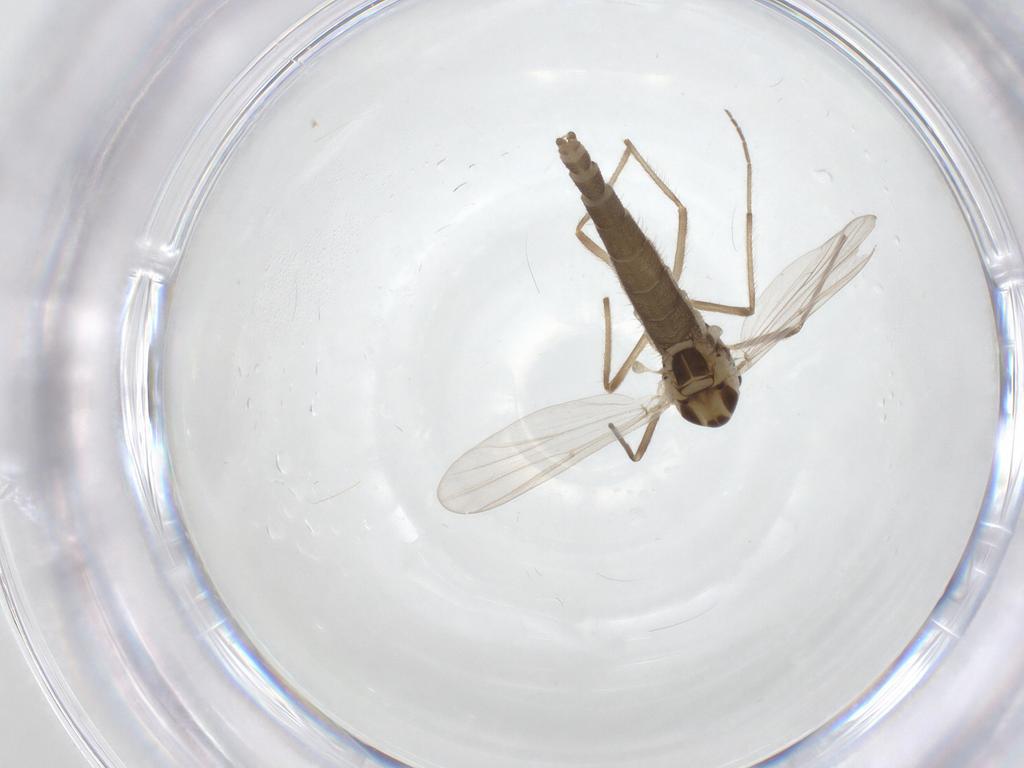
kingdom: Animalia
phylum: Arthropoda
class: Insecta
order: Diptera
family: Chironomidae
